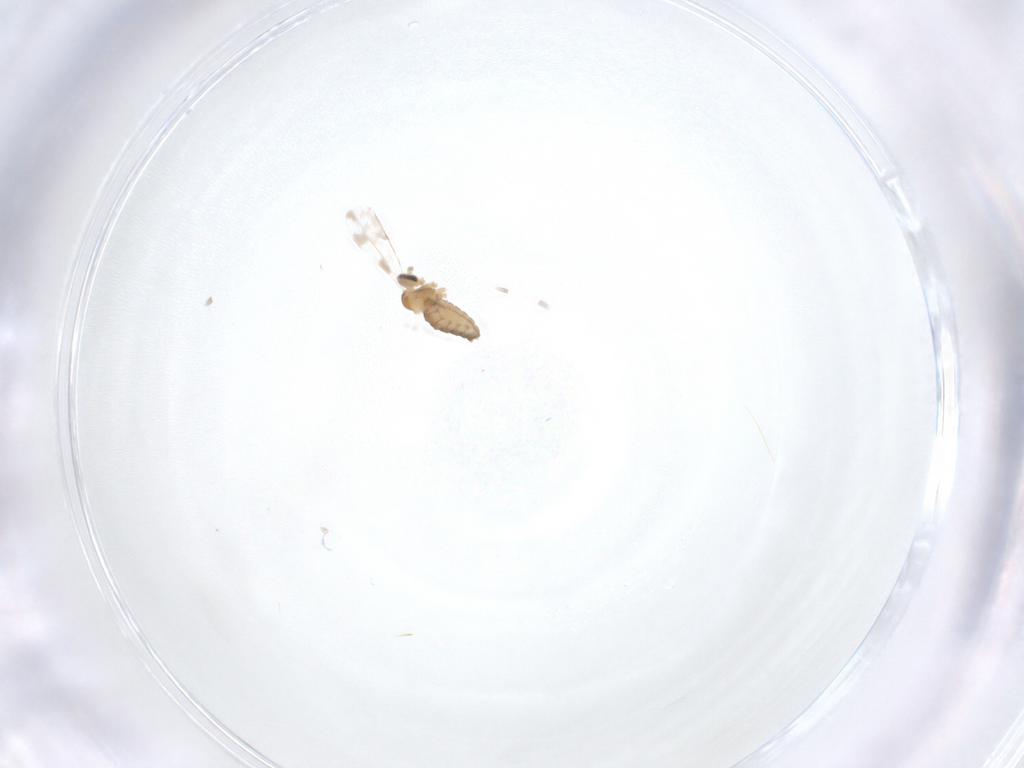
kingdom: Animalia
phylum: Arthropoda
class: Insecta
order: Diptera
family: Cecidomyiidae
